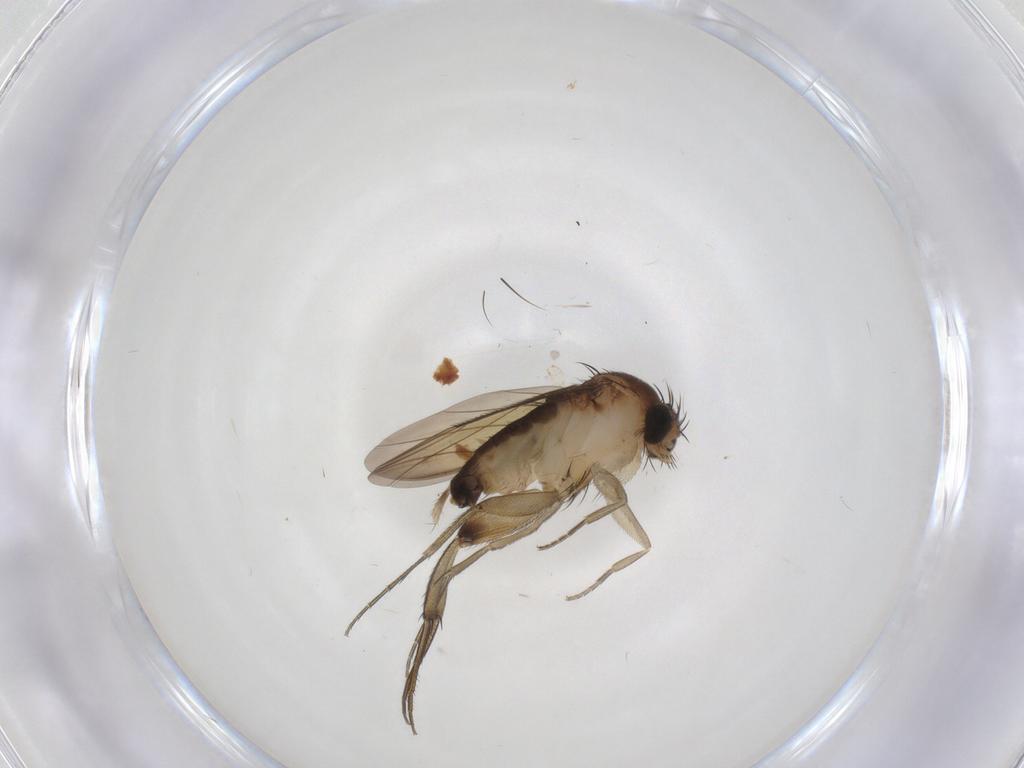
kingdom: Animalia
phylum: Arthropoda
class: Insecta
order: Diptera
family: Phoridae
